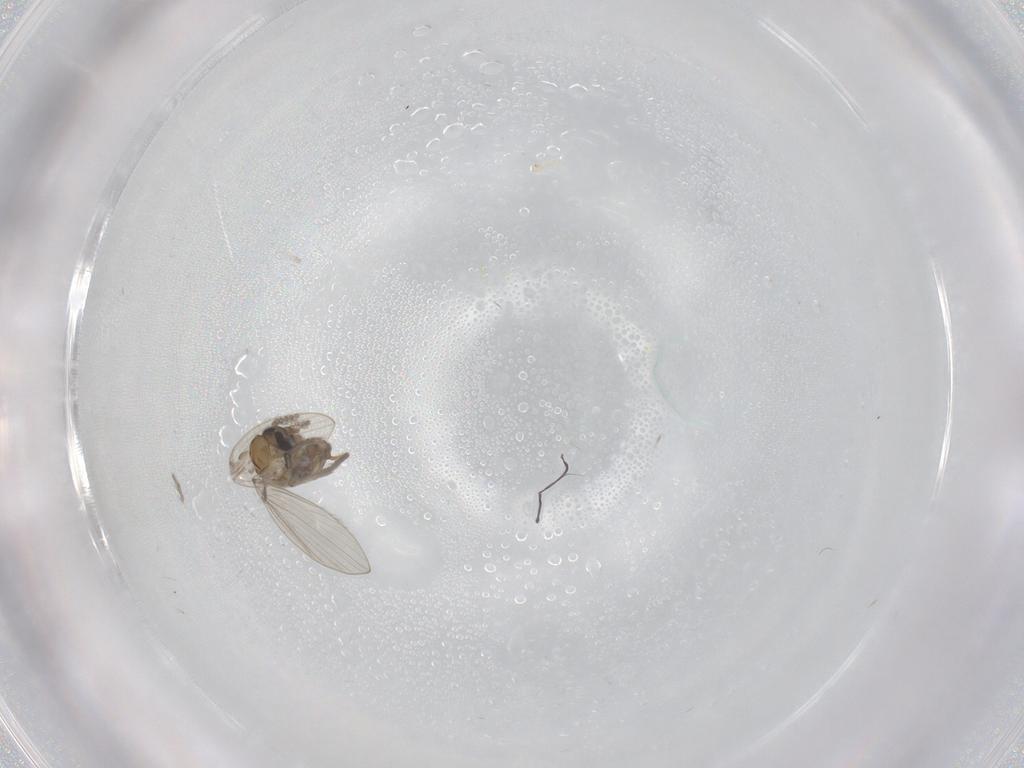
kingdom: Animalia
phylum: Arthropoda
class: Insecta
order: Diptera
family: Psychodidae
